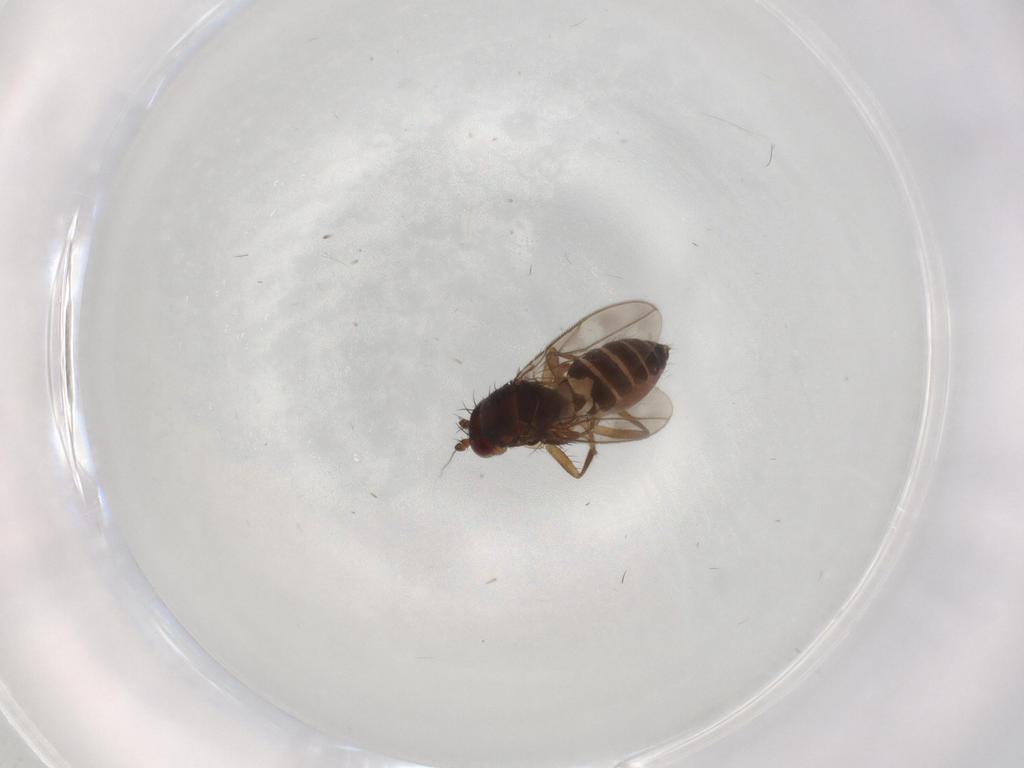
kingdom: Animalia
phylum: Arthropoda
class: Insecta
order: Diptera
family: Sphaeroceridae
